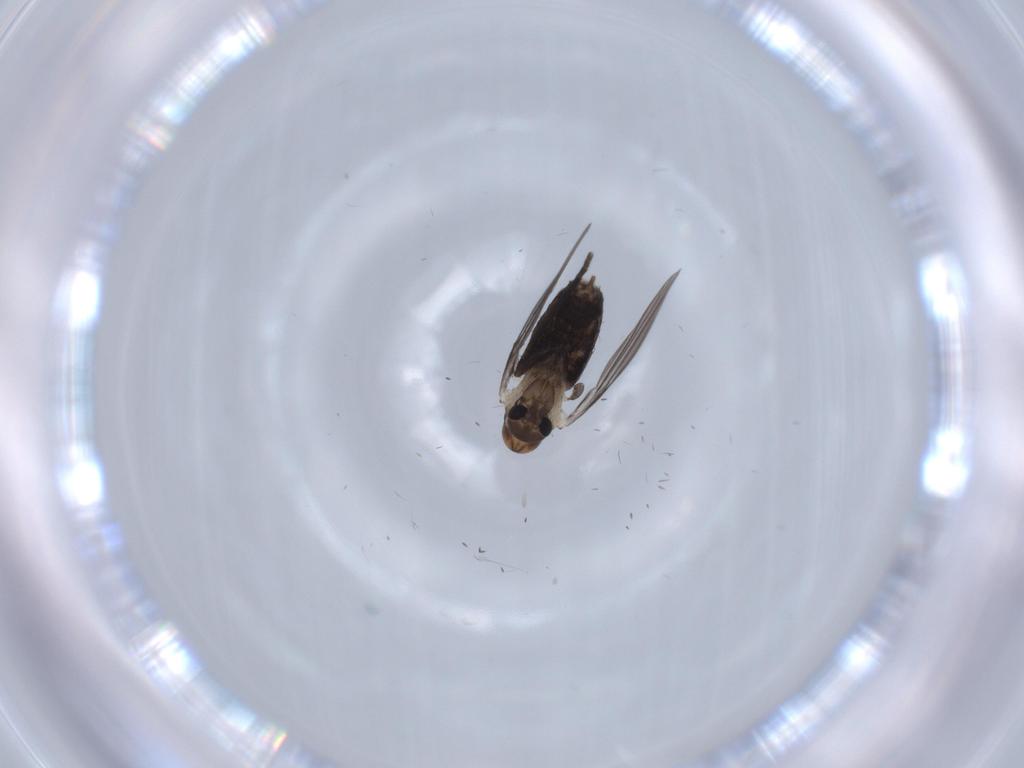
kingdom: Animalia
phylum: Arthropoda
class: Insecta
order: Diptera
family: Psychodidae
